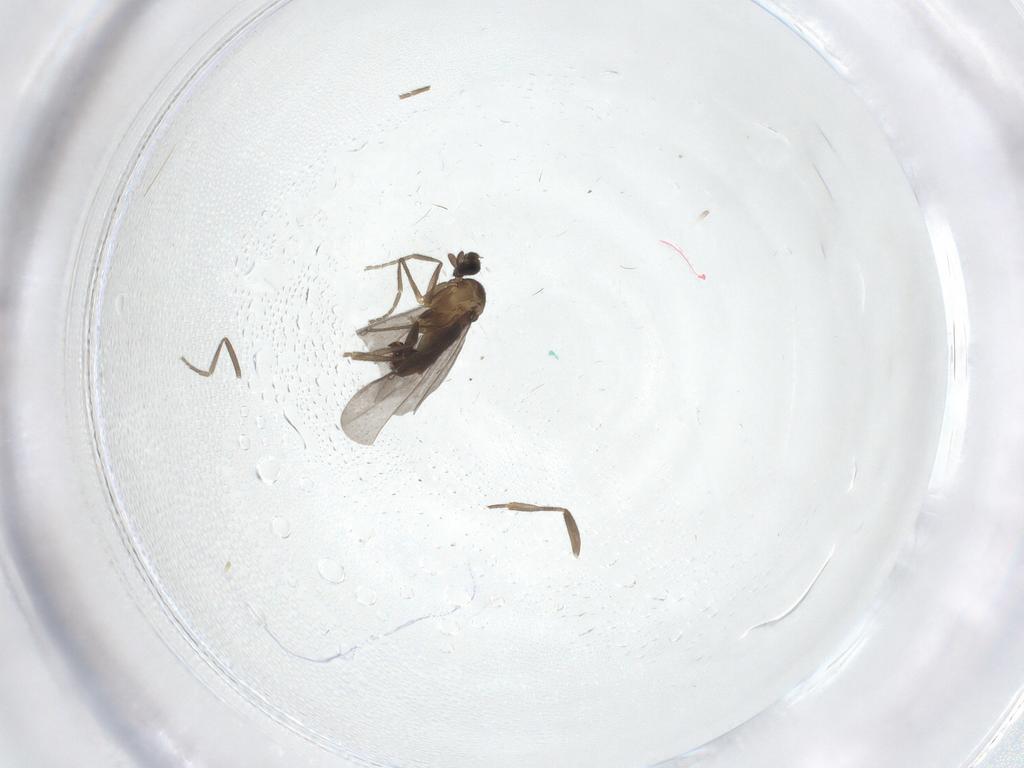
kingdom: Animalia
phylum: Arthropoda
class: Insecta
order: Diptera
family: Phoridae
